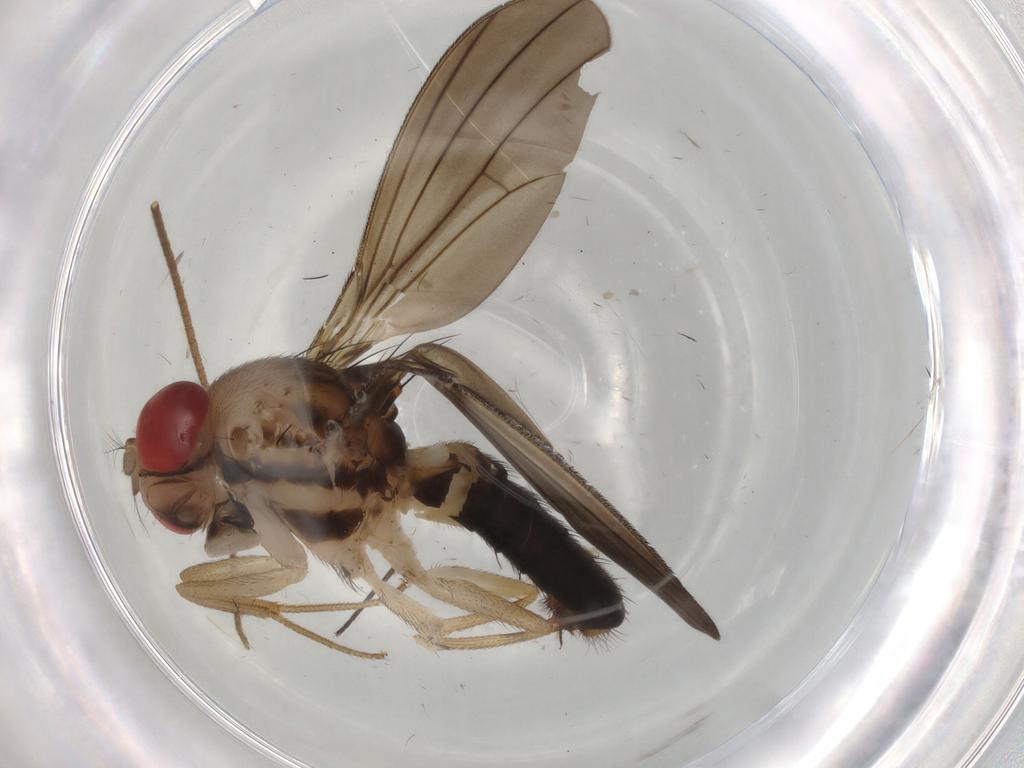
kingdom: Animalia
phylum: Arthropoda
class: Insecta
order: Diptera
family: Drosophilidae
